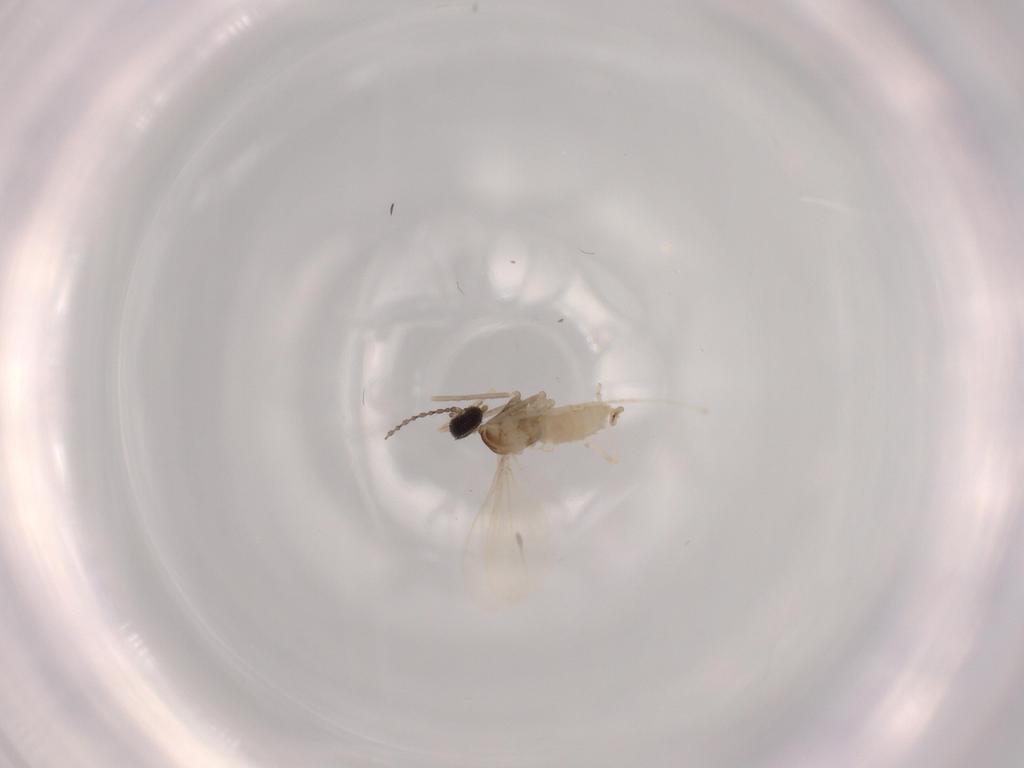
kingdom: Animalia
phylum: Arthropoda
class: Insecta
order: Diptera
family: Cecidomyiidae
